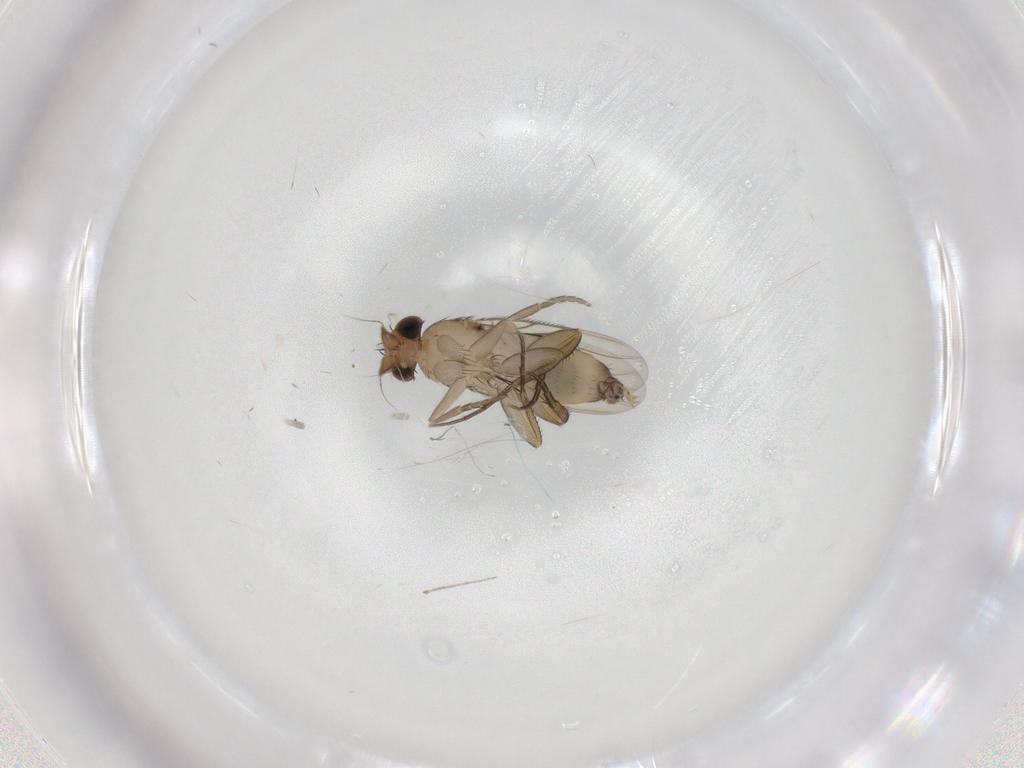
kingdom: Animalia
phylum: Arthropoda
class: Insecta
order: Diptera
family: Phoridae
